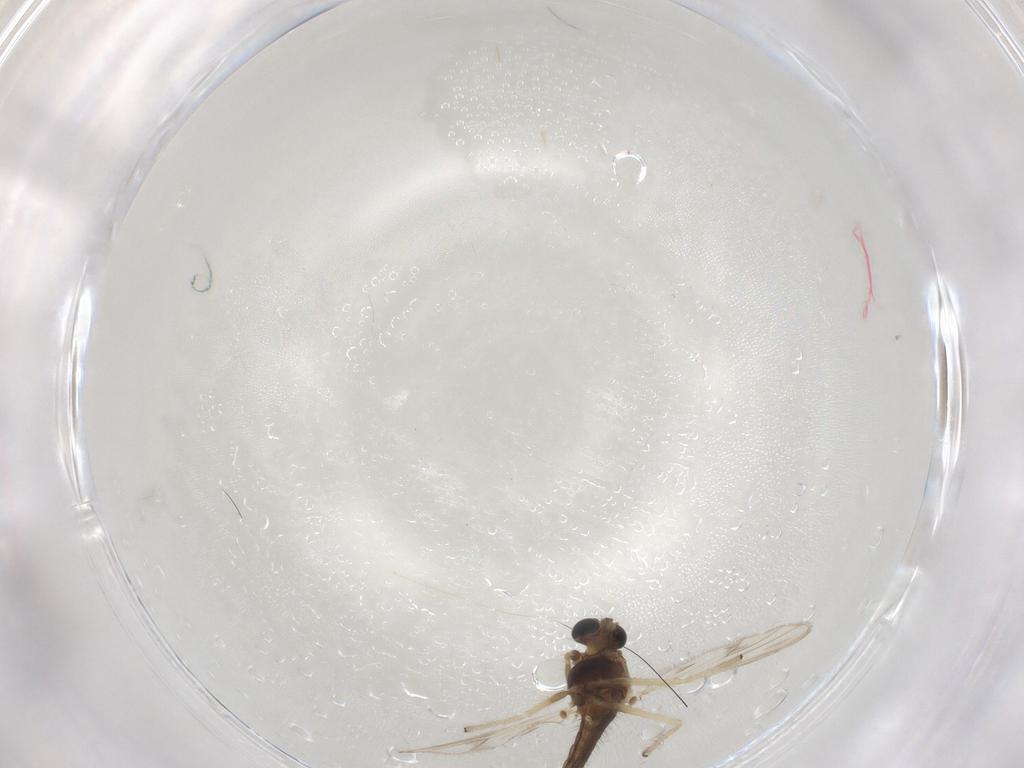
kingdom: Animalia
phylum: Arthropoda
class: Insecta
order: Diptera
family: Chironomidae
